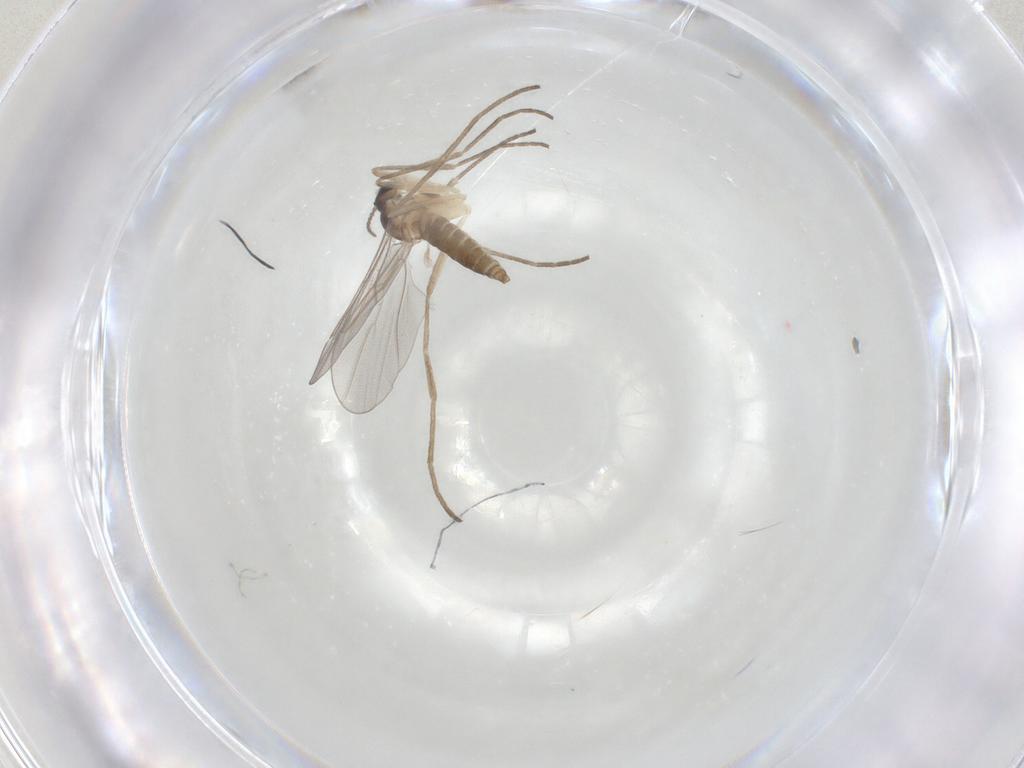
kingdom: Animalia
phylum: Arthropoda
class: Insecta
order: Diptera
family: Cecidomyiidae
